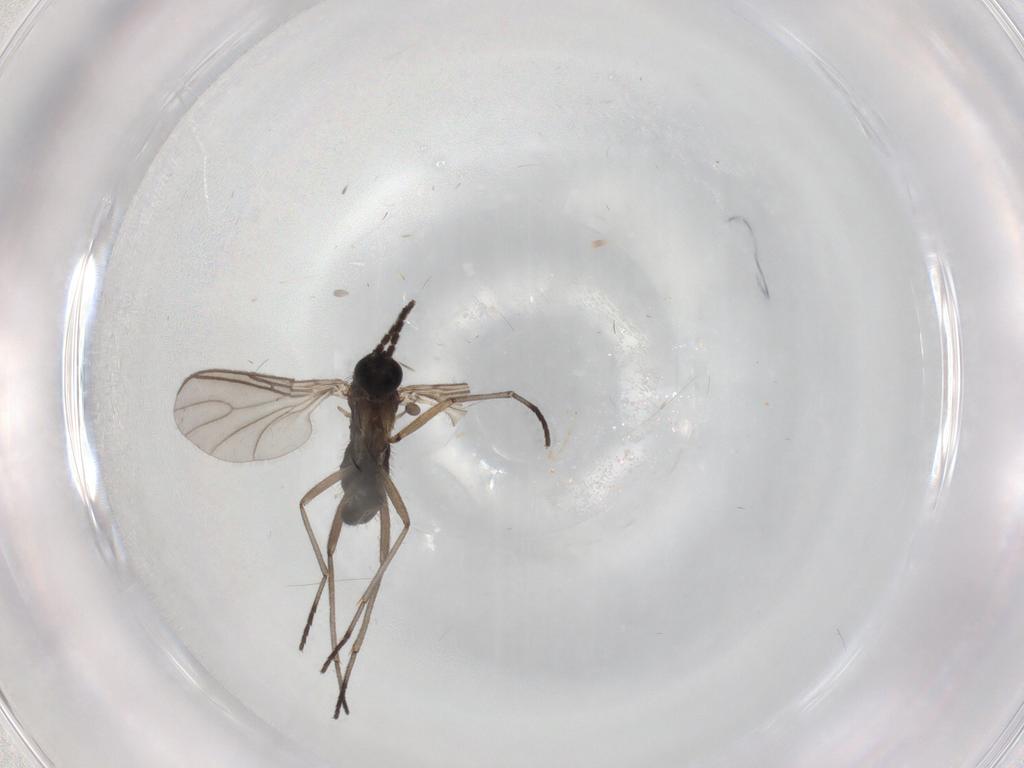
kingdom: Animalia
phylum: Arthropoda
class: Insecta
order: Diptera
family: Sciaridae
